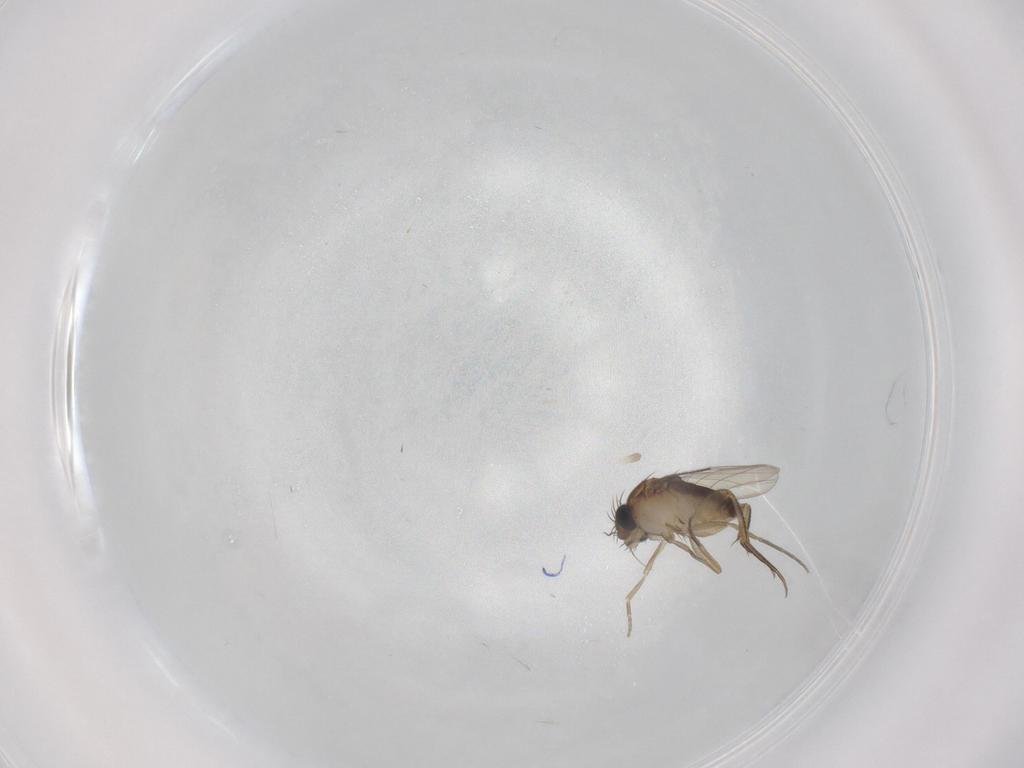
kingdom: Animalia
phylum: Arthropoda
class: Insecta
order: Diptera
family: Phoridae
